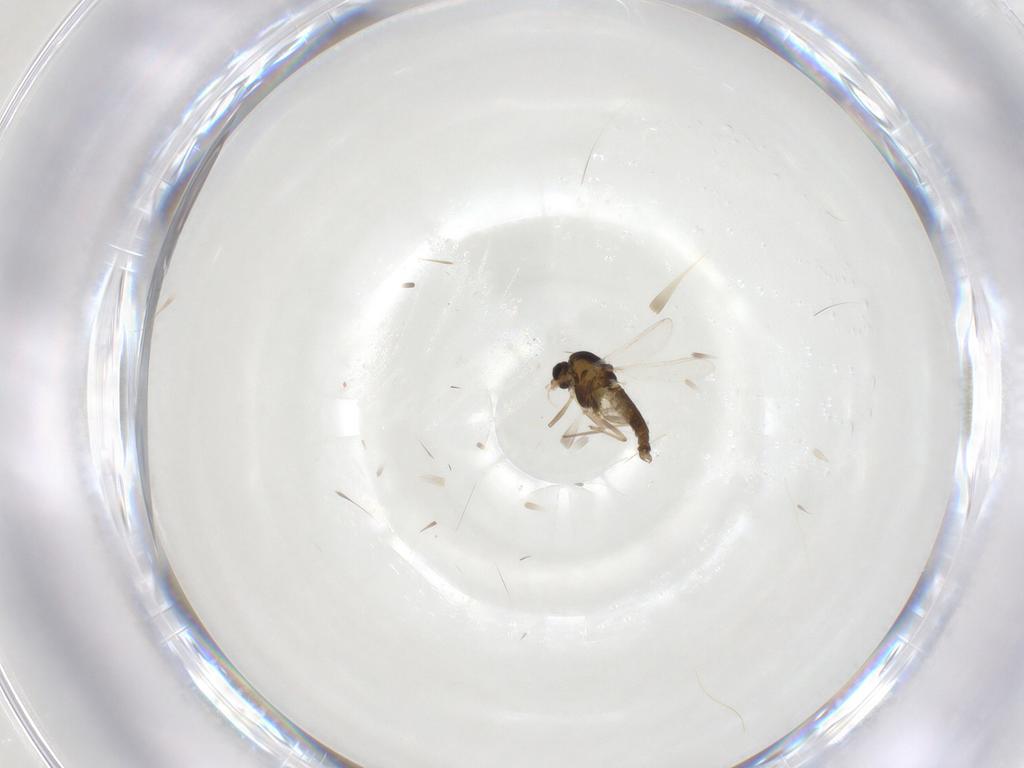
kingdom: Animalia
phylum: Arthropoda
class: Insecta
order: Diptera
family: Chironomidae
